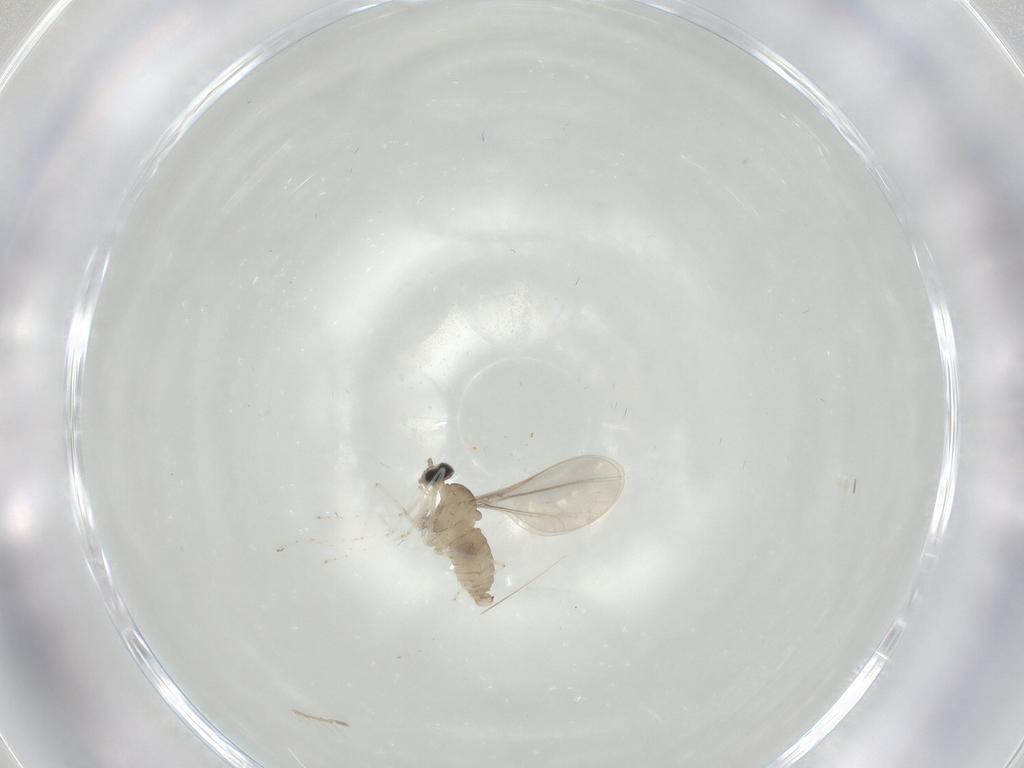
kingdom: Animalia
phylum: Arthropoda
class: Insecta
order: Diptera
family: Cecidomyiidae
